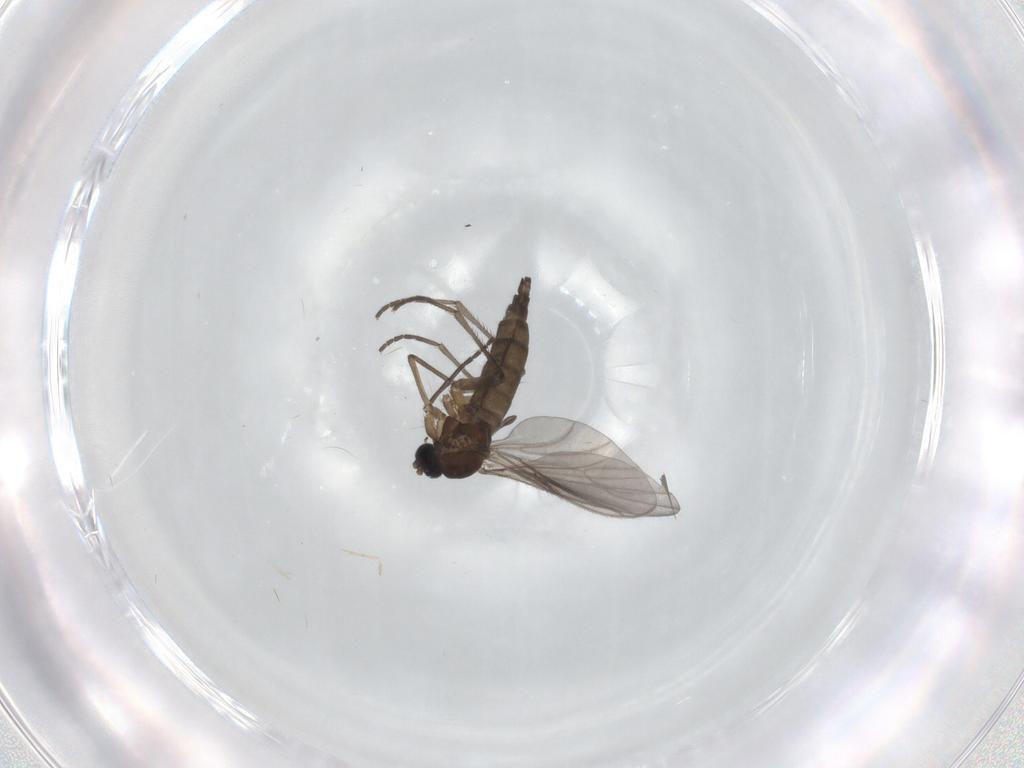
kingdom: Animalia
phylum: Arthropoda
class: Insecta
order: Diptera
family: Sciaridae
